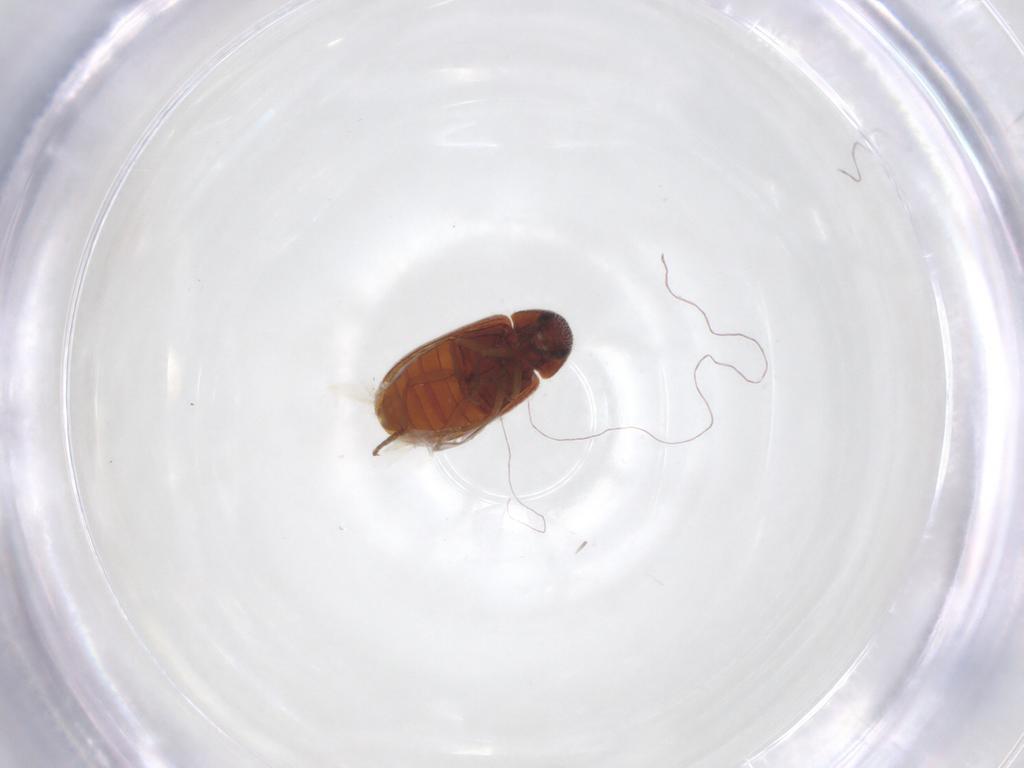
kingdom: Animalia
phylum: Arthropoda
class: Insecta
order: Coleoptera
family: Rhadalidae
